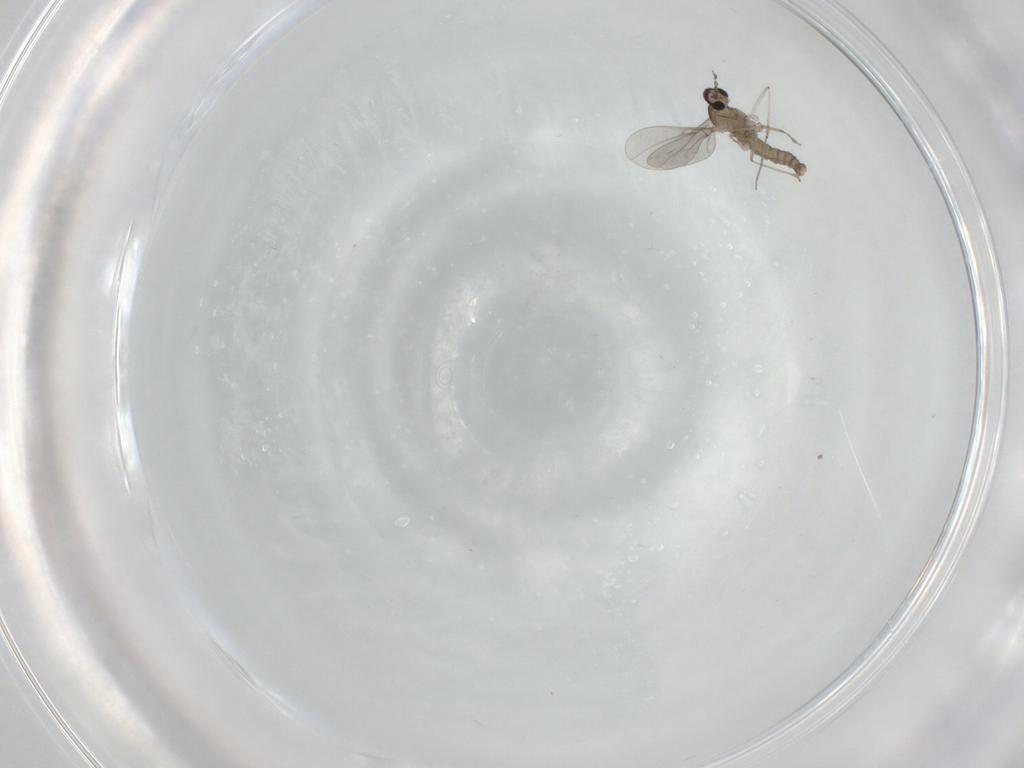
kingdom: Animalia
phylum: Arthropoda
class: Insecta
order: Diptera
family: Cecidomyiidae
